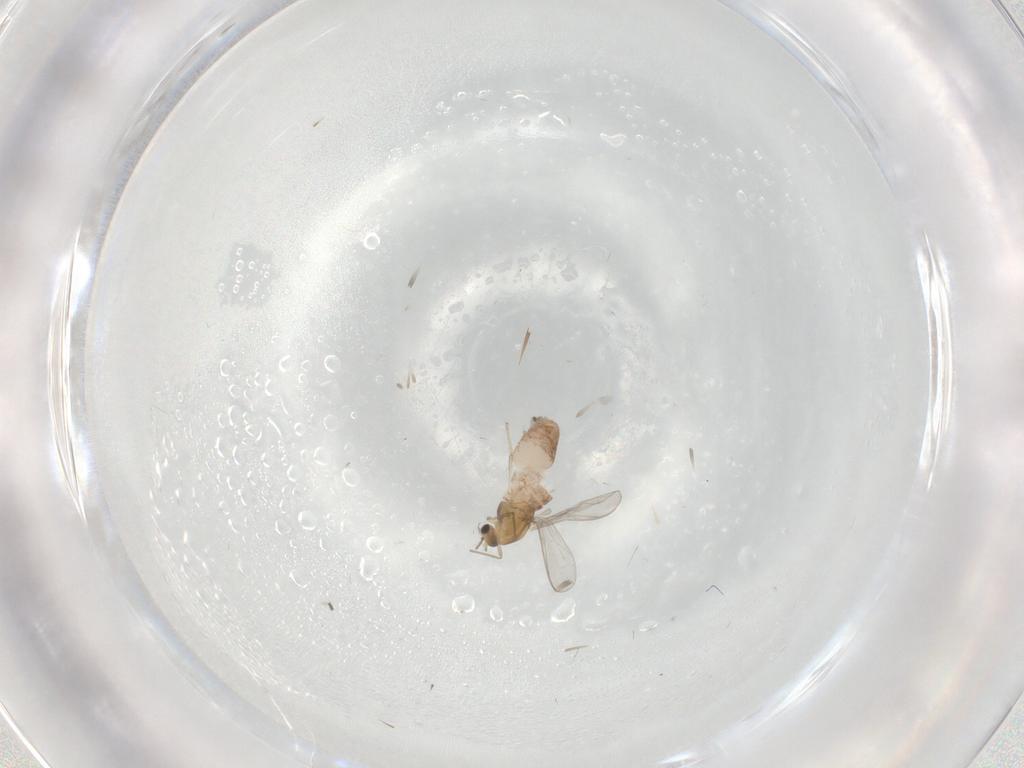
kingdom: Animalia
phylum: Arthropoda
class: Insecta
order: Diptera
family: Chironomidae
